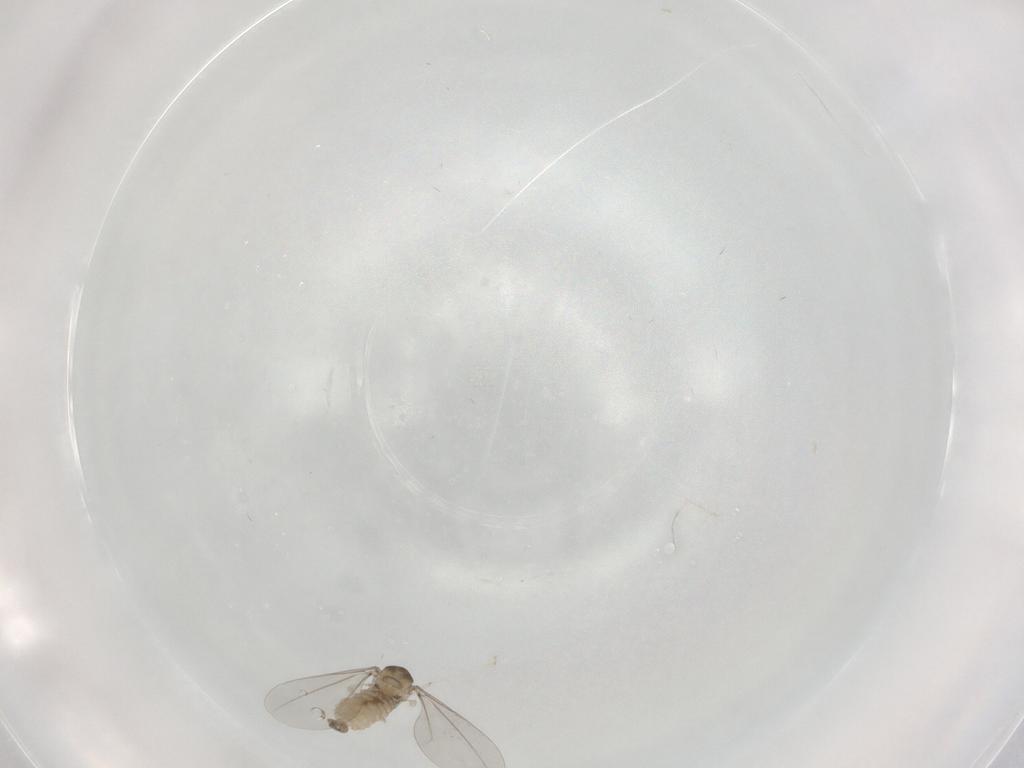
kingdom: Animalia
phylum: Arthropoda
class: Insecta
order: Diptera
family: Cecidomyiidae
